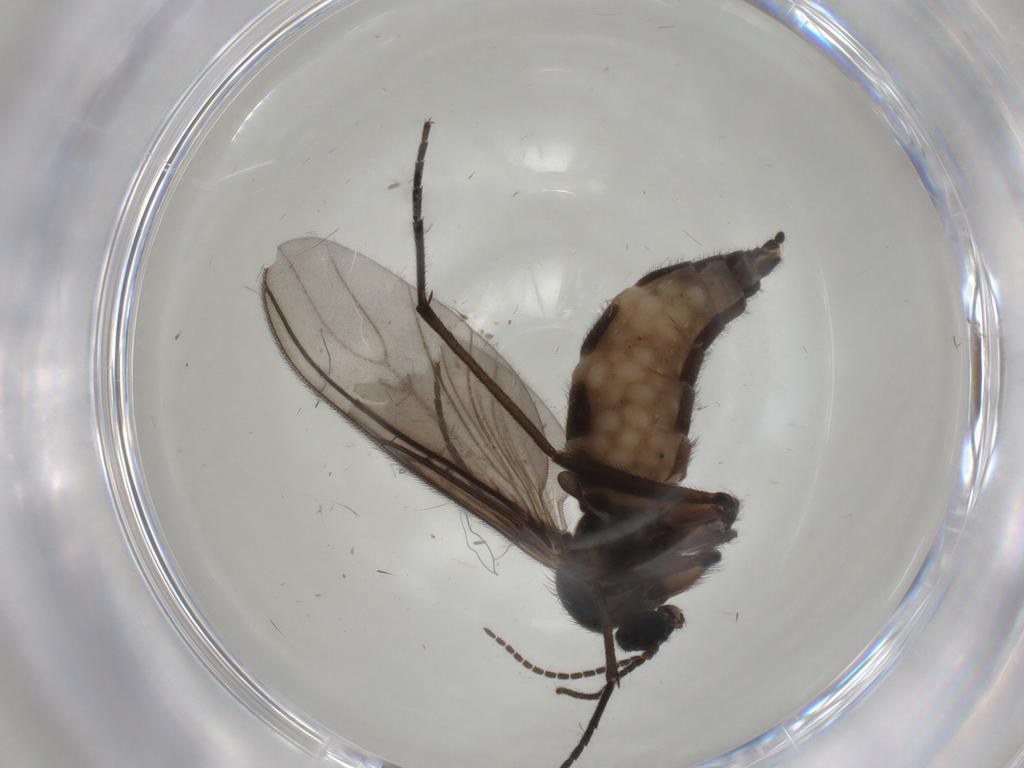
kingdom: Animalia
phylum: Arthropoda
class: Insecta
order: Diptera
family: Sciaridae
